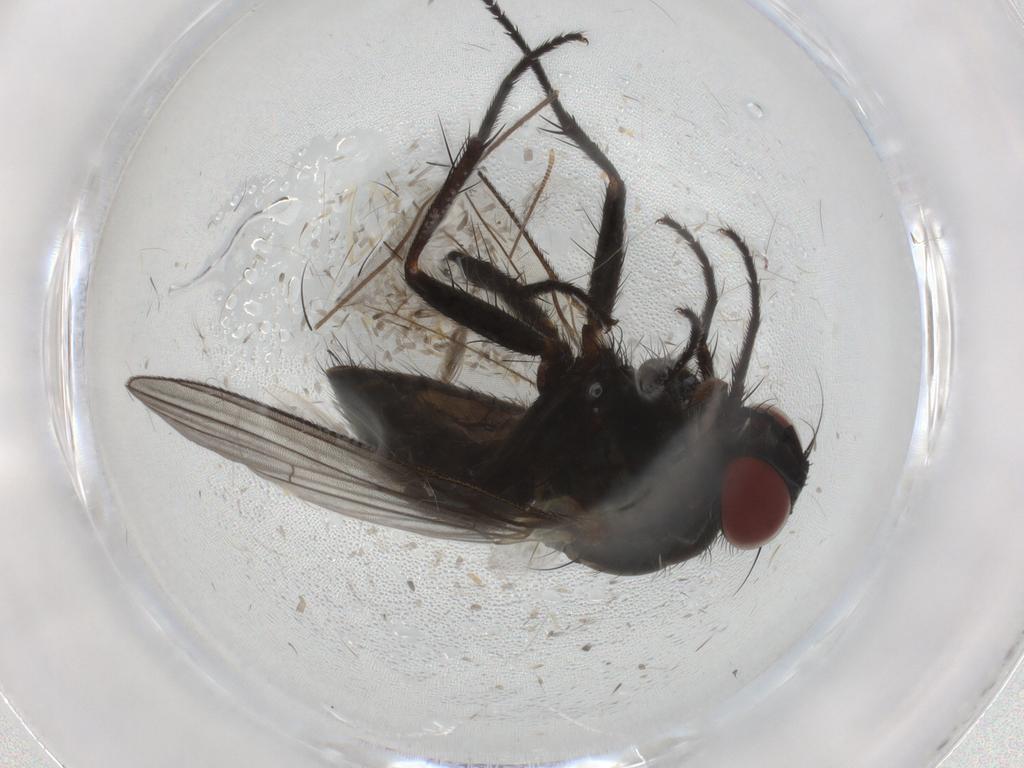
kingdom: Animalia
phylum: Arthropoda
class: Insecta
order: Diptera
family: Muscidae
